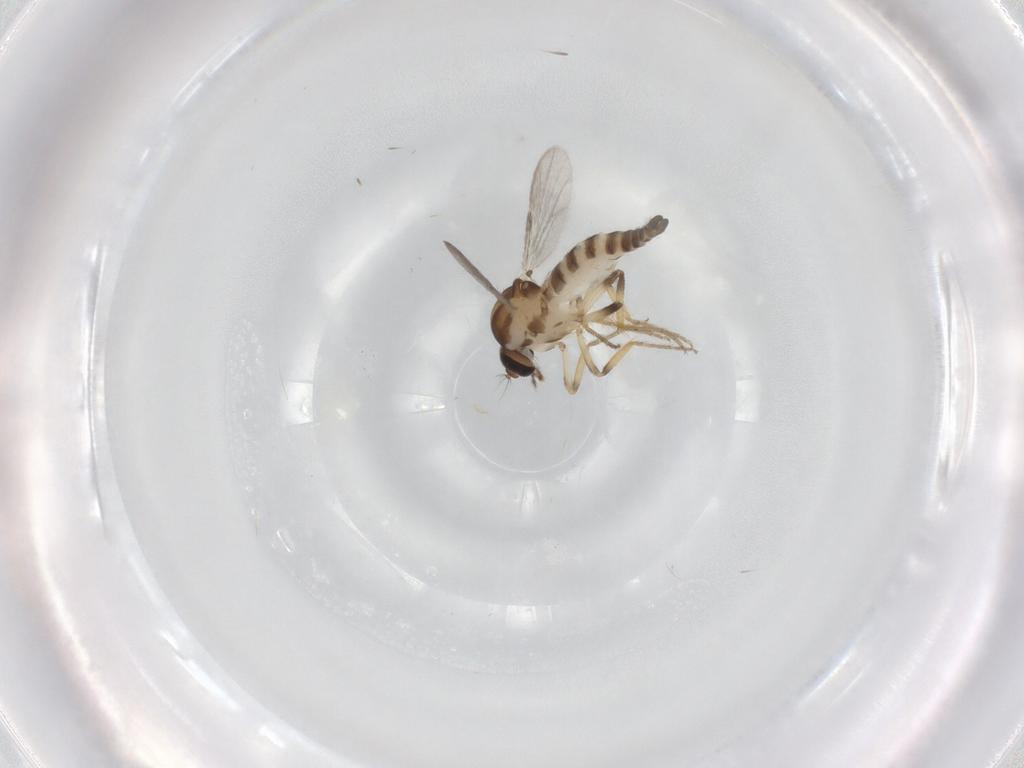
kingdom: Animalia
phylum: Arthropoda
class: Insecta
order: Diptera
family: Ceratopogonidae
